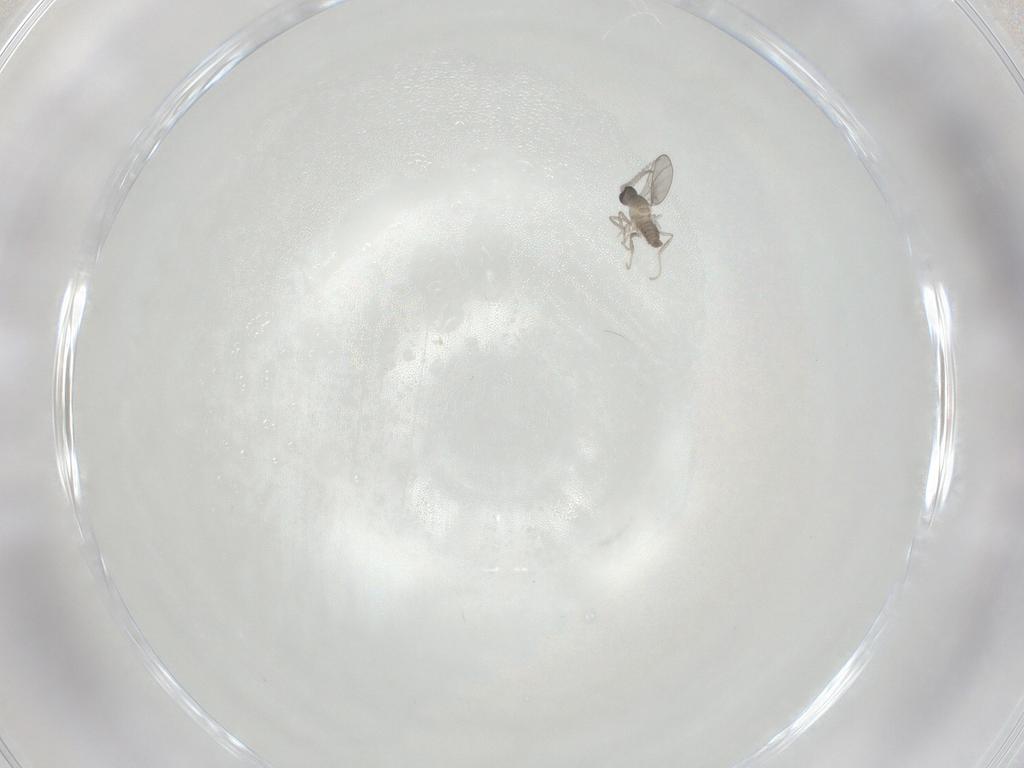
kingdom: Animalia
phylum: Arthropoda
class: Insecta
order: Diptera
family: Cecidomyiidae
